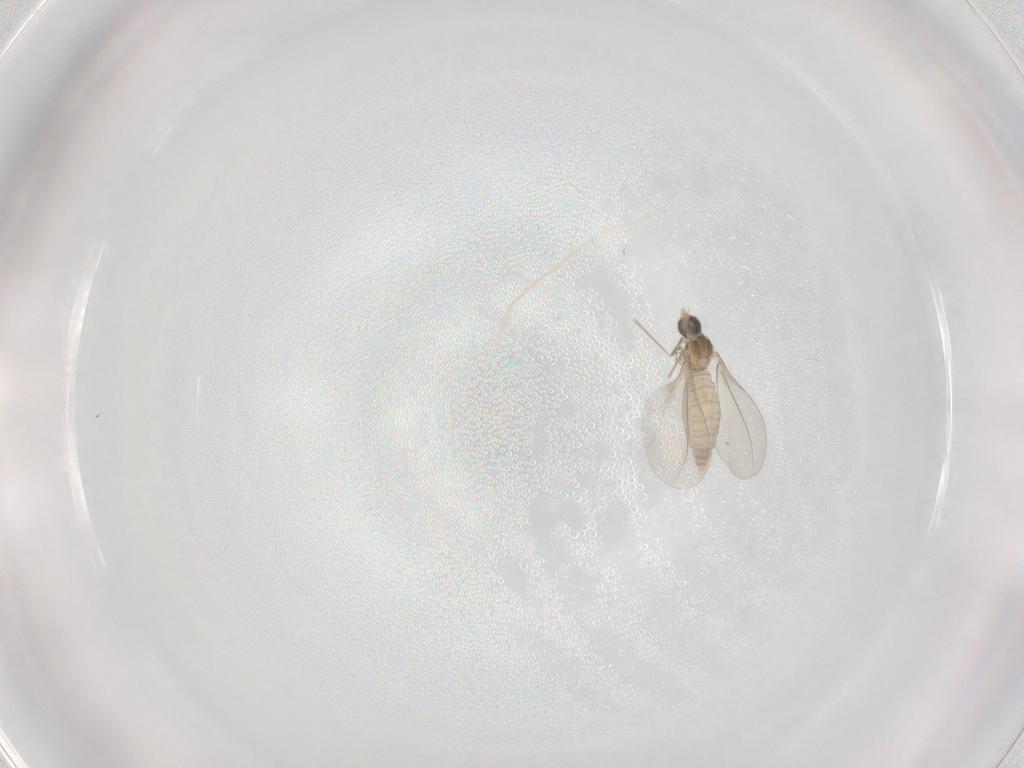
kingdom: Animalia
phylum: Arthropoda
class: Insecta
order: Diptera
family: Cecidomyiidae
